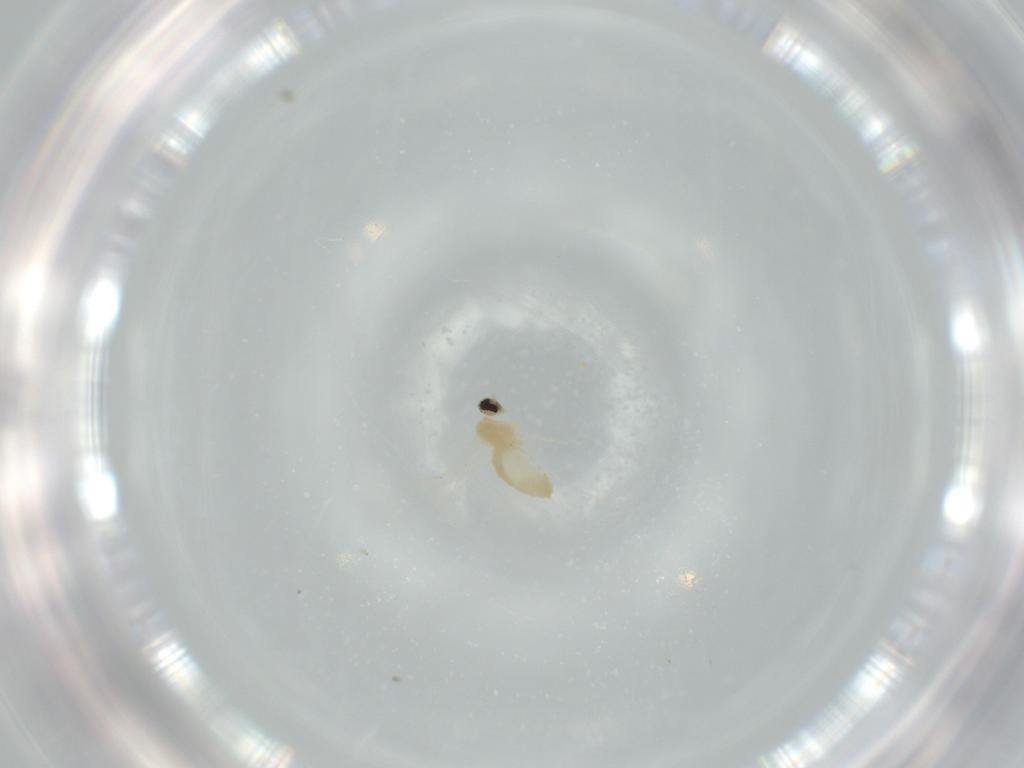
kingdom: Animalia
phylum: Arthropoda
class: Insecta
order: Diptera
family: Cecidomyiidae
